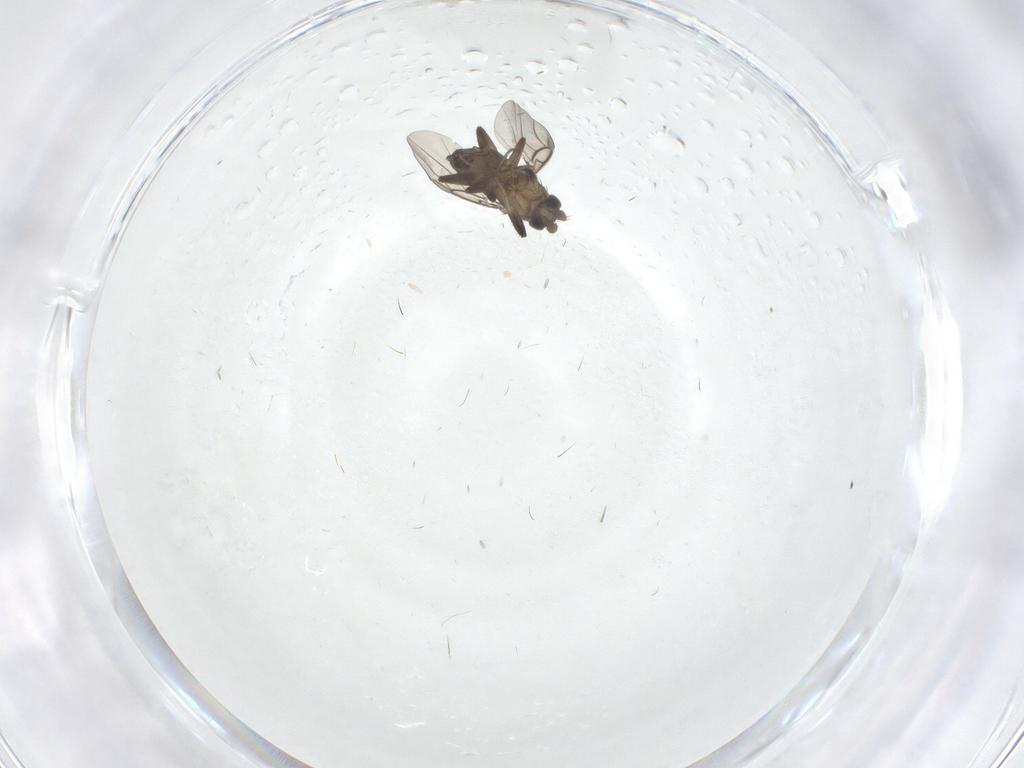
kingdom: Animalia
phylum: Arthropoda
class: Insecta
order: Diptera
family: Phoridae
